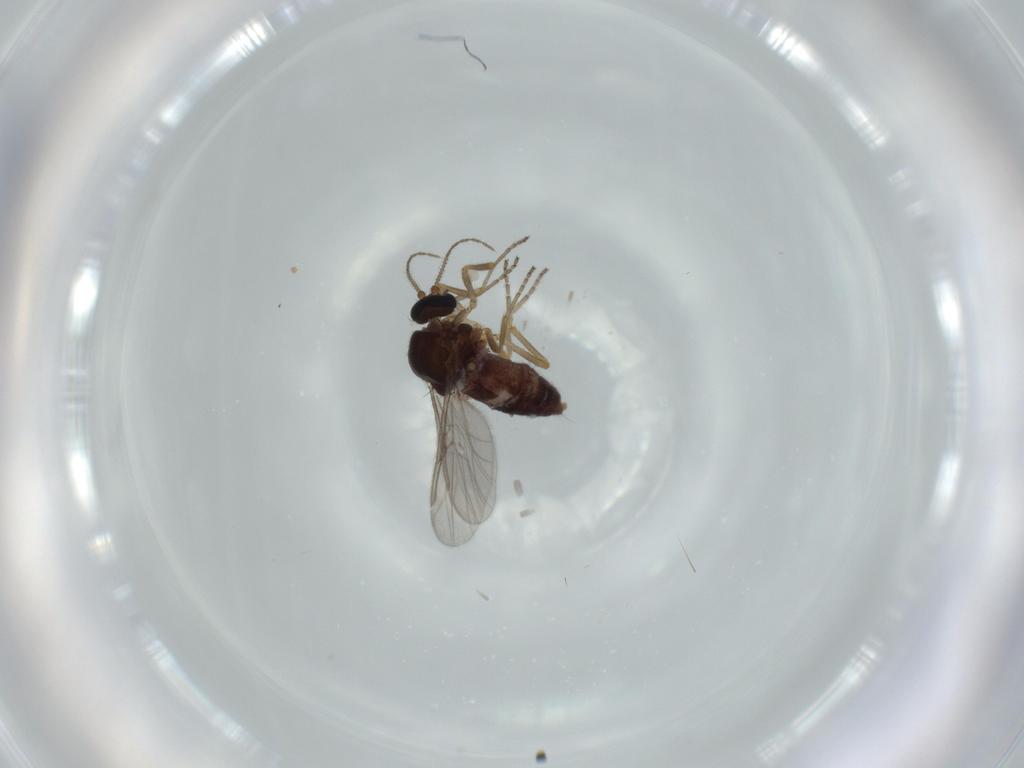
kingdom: Animalia
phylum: Arthropoda
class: Insecta
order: Diptera
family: Ceratopogonidae
